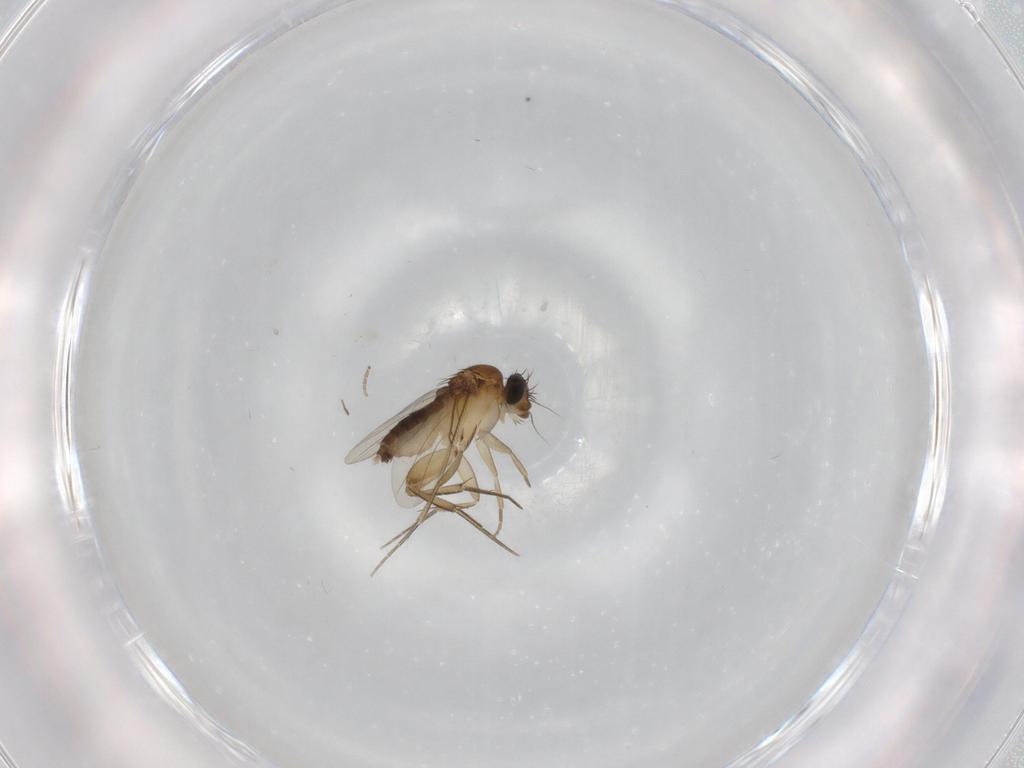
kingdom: Animalia
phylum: Arthropoda
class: Insecta
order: Diptera
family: Phoridae
